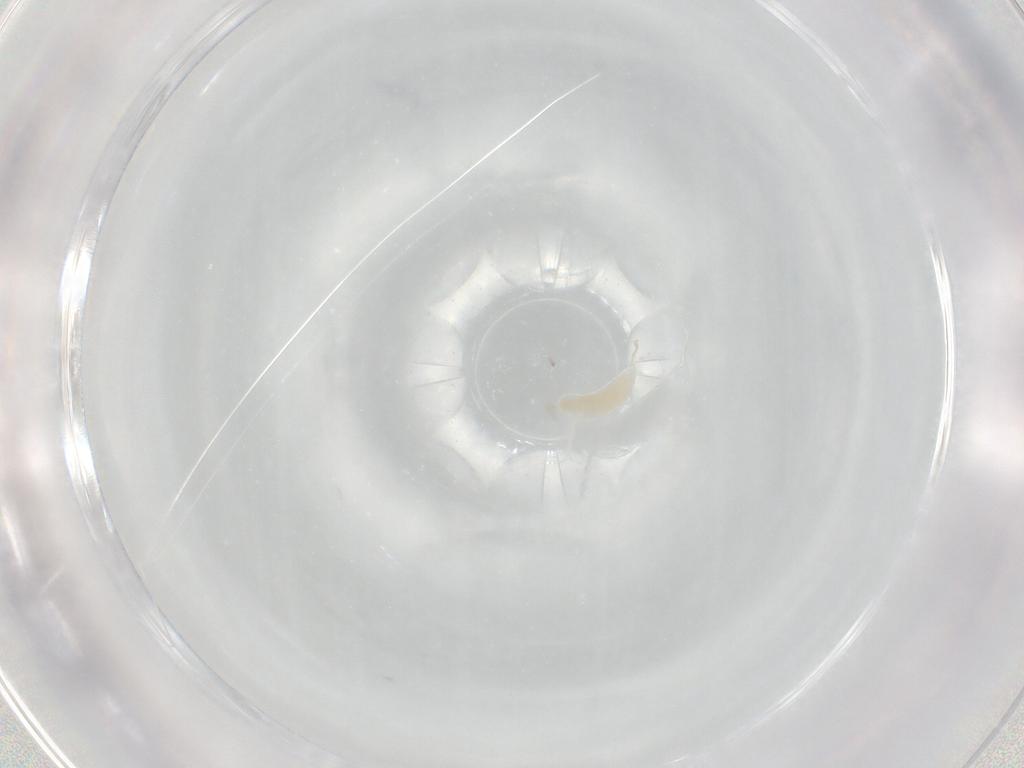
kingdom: Animalia
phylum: Arthropoda
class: Insecta
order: Hymenoptera
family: Ichneumonidae
